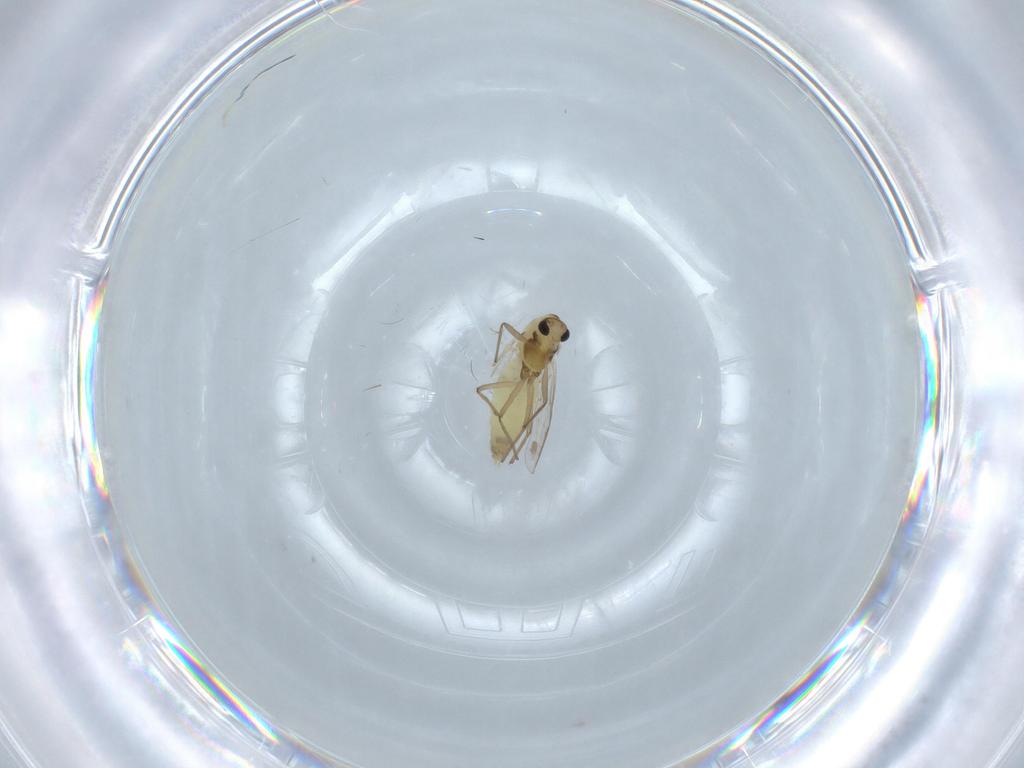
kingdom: Animalia
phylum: Arthropoda
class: Insecta
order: Diptera
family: Chironomidae
